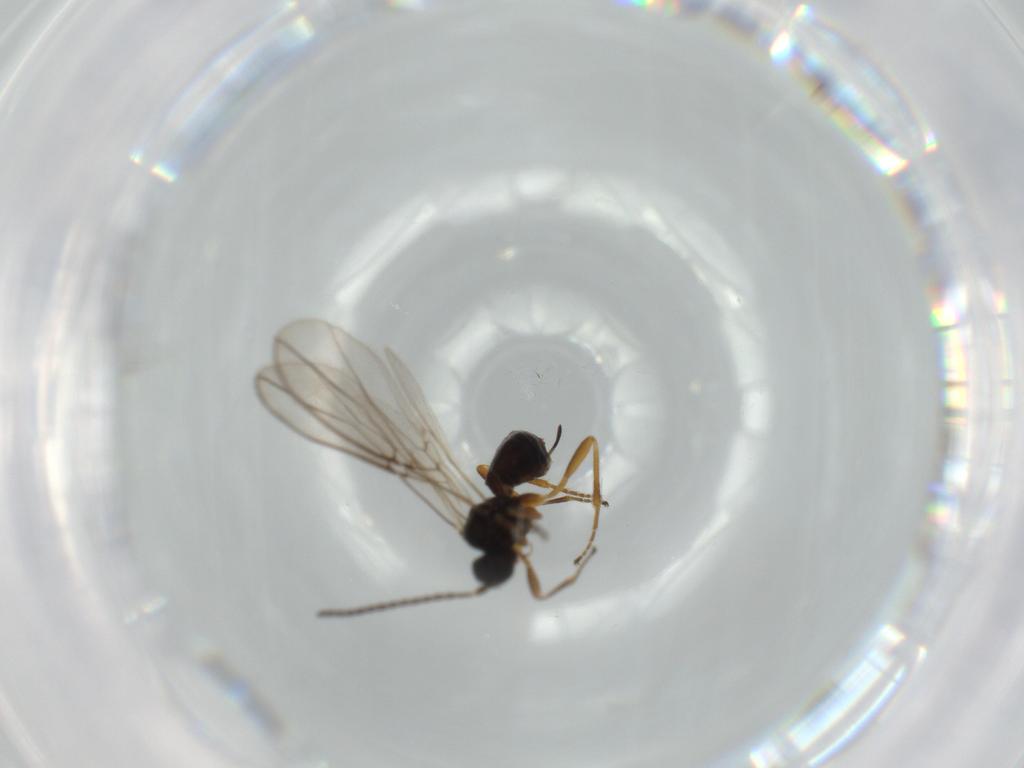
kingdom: Animalia
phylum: Arthropoda
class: Insecta
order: Hymenoptera
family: Braconidae
